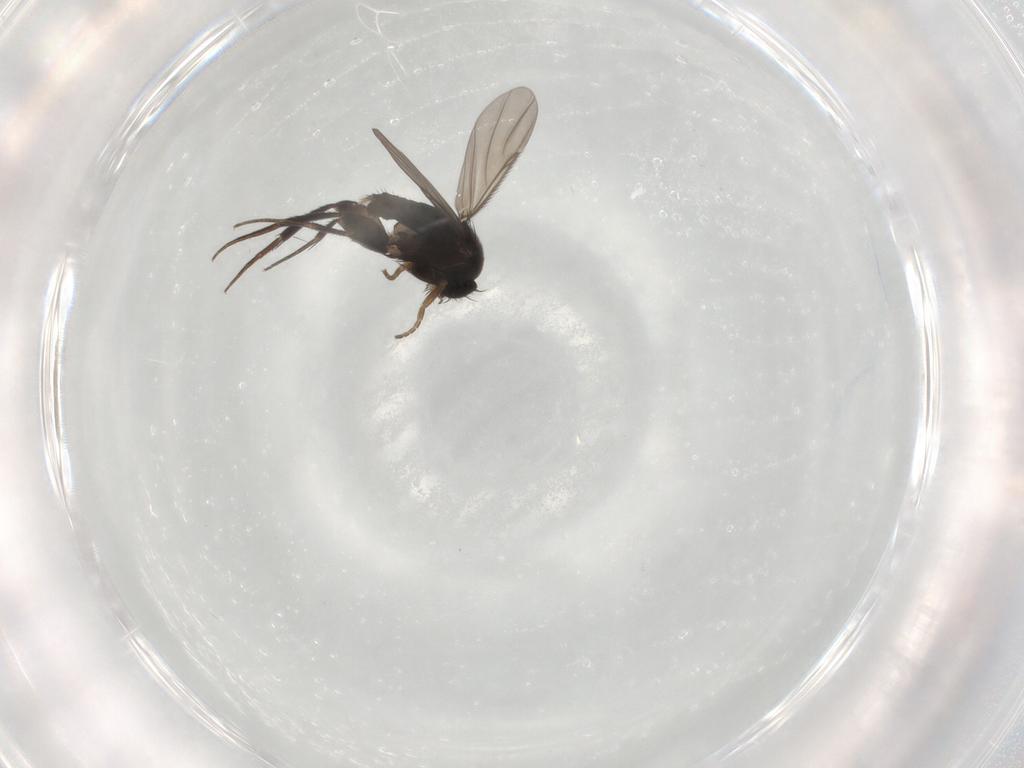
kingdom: Animalia
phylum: Arthropoda
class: Insecta
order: Diptera
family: Phoridae
